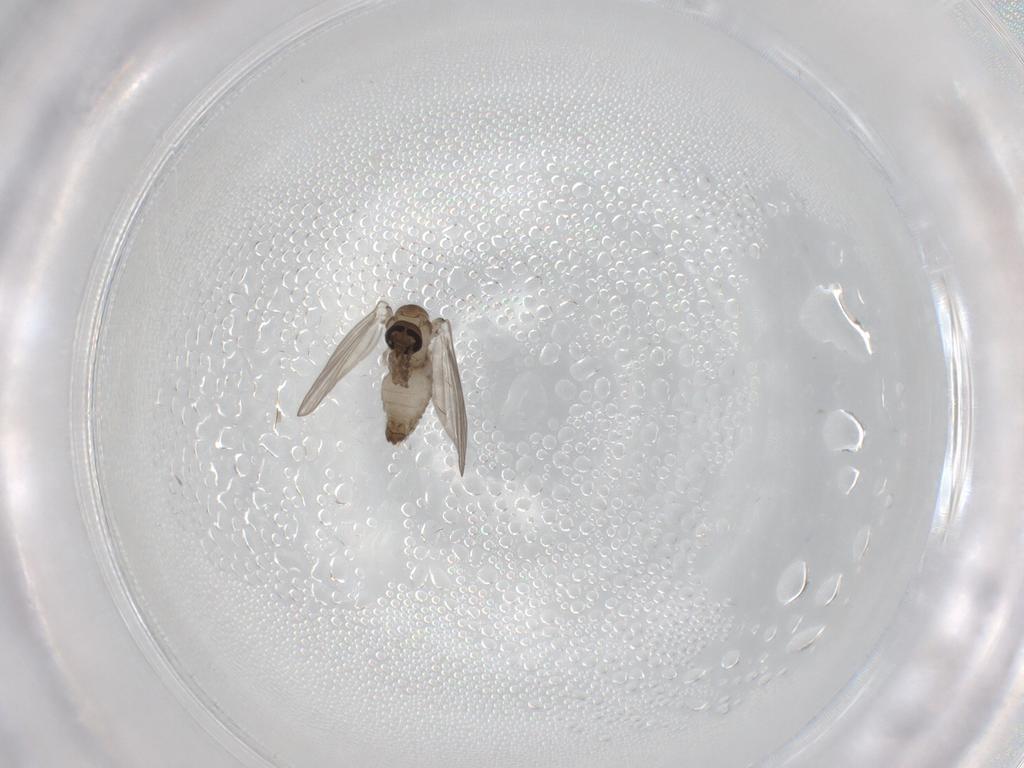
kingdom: Animalia
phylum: Arthropoda
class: Insecta
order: Diptera
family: Psychodidae
